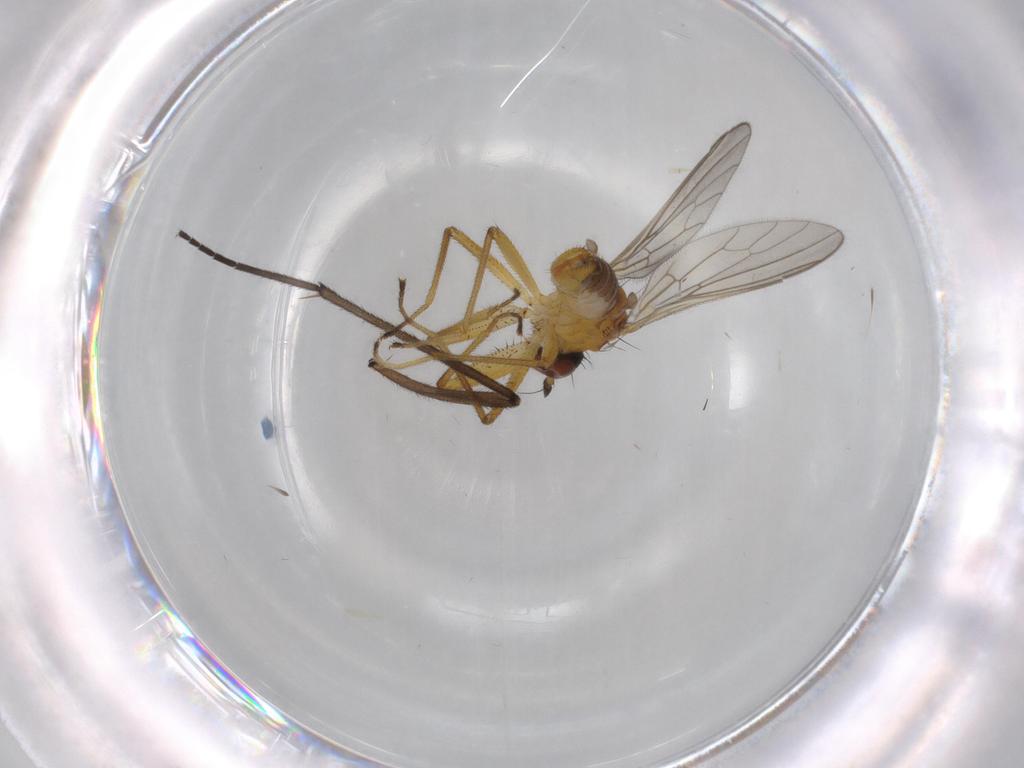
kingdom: Animalia
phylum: Arthropoda
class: Insecta
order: Diptera
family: Empididae
